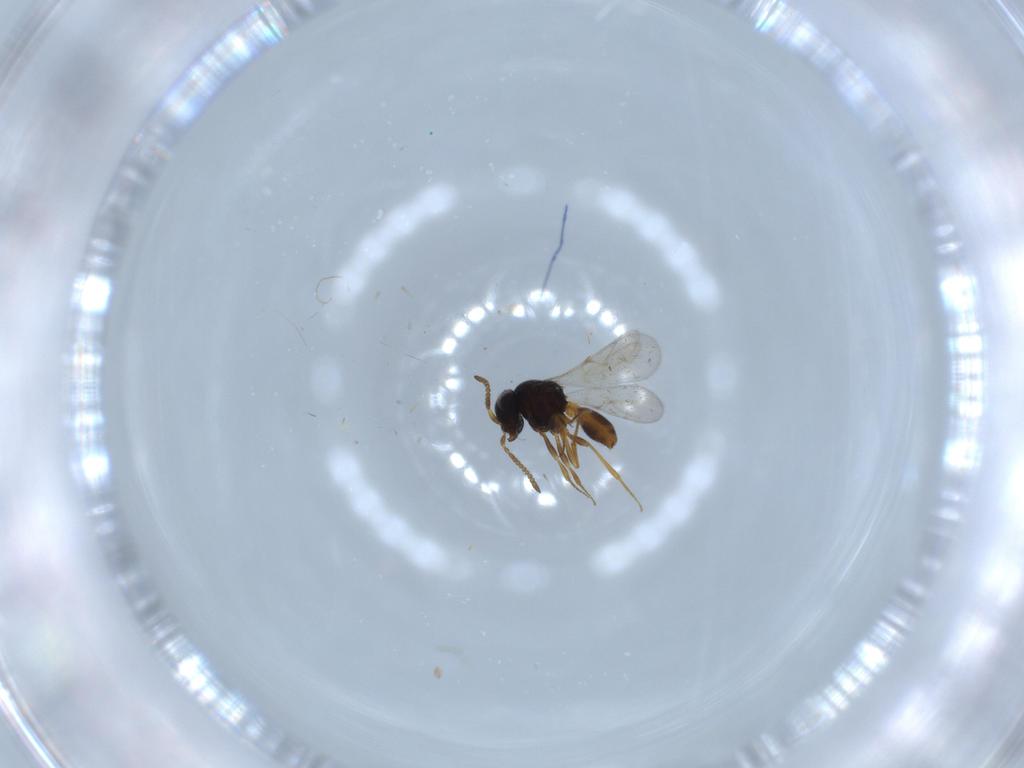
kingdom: Animalia
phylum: Arthropoda
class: Insecta
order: Hymenoptera
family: Scelionidae
